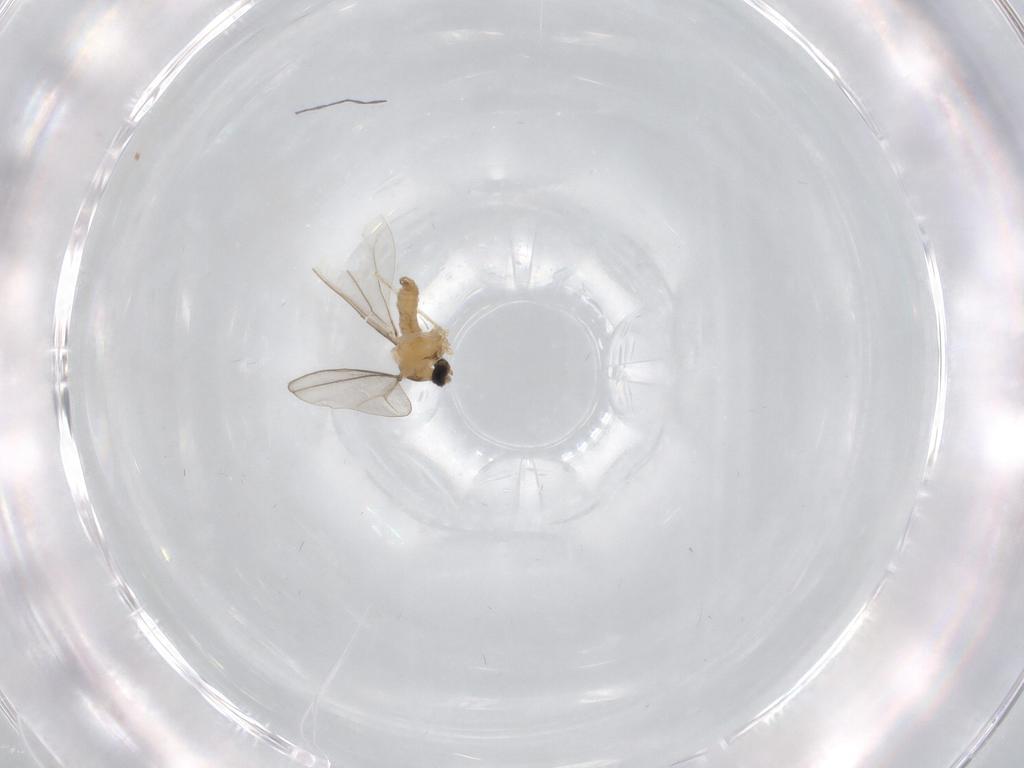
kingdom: Animalia
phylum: Arthropoda
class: Insecta
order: Diptera
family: Cecidomyiidae
